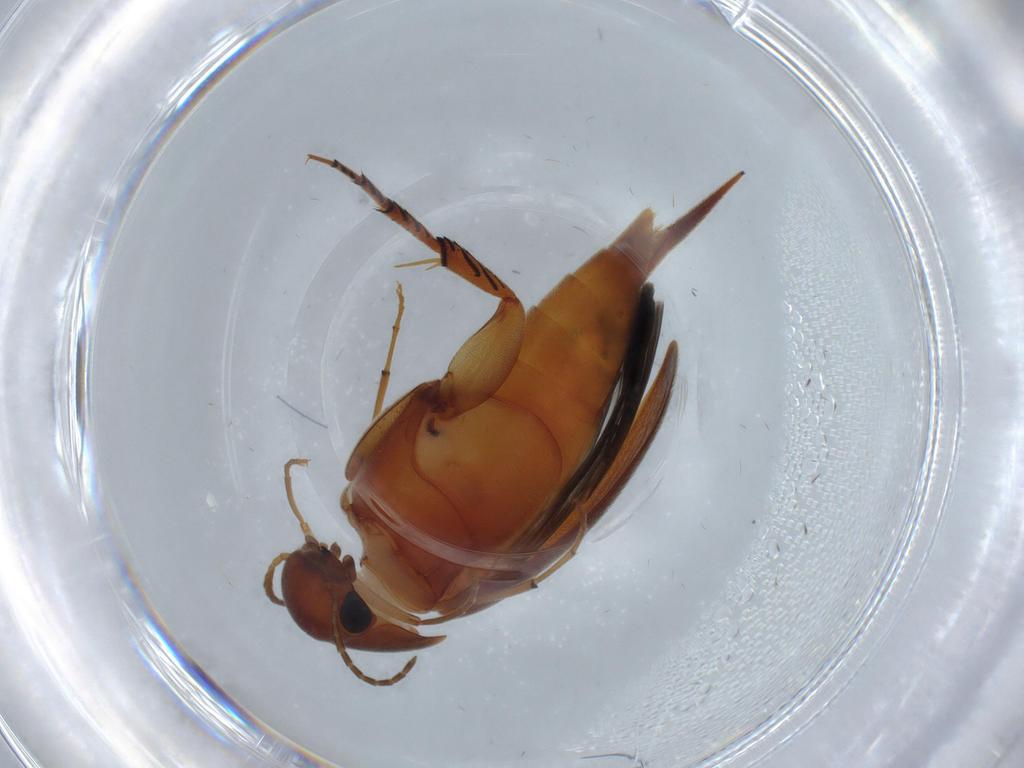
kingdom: Animalia
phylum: Arthropoda
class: Insecta
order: Coleoptera
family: Mordellidae
